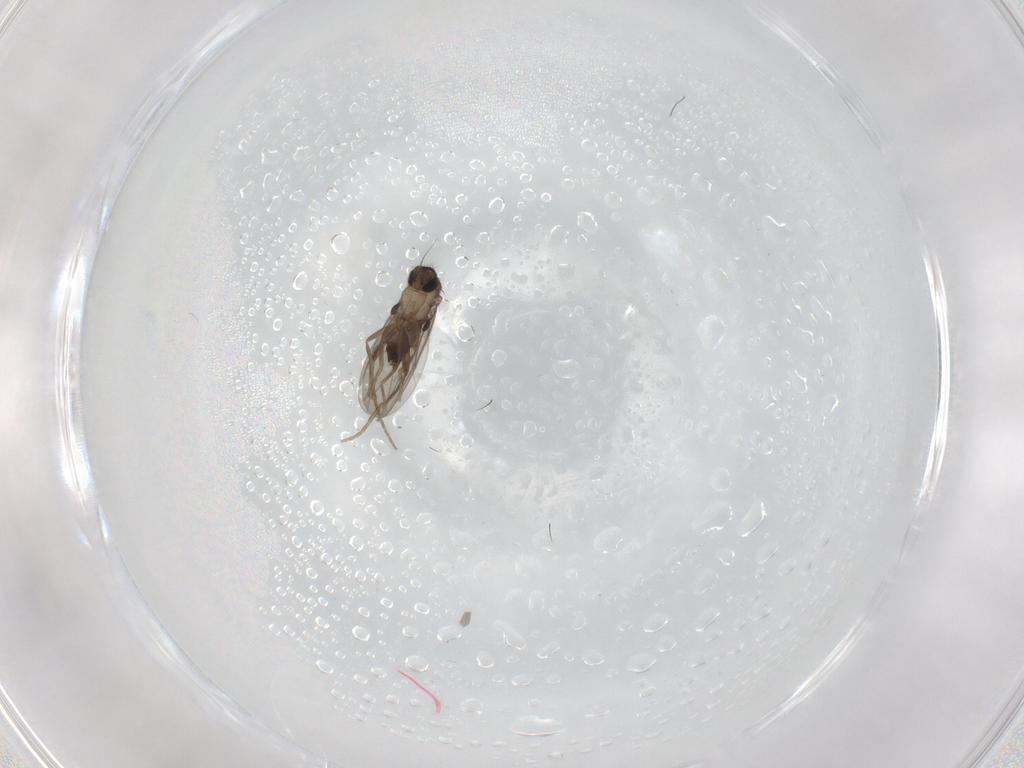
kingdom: Animalia
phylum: Arthropoda
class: Insecta
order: Diptera
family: Phoridae
